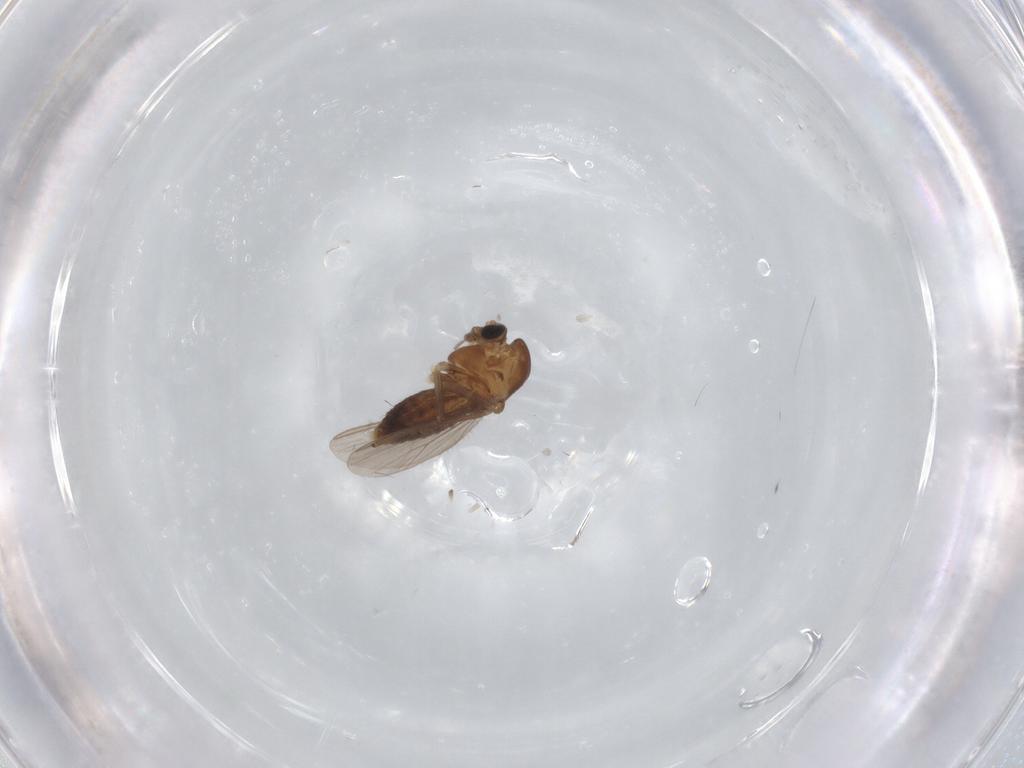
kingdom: Animalia
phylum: Arthropoda
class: Insecta
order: Diptera
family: Chironomidae
